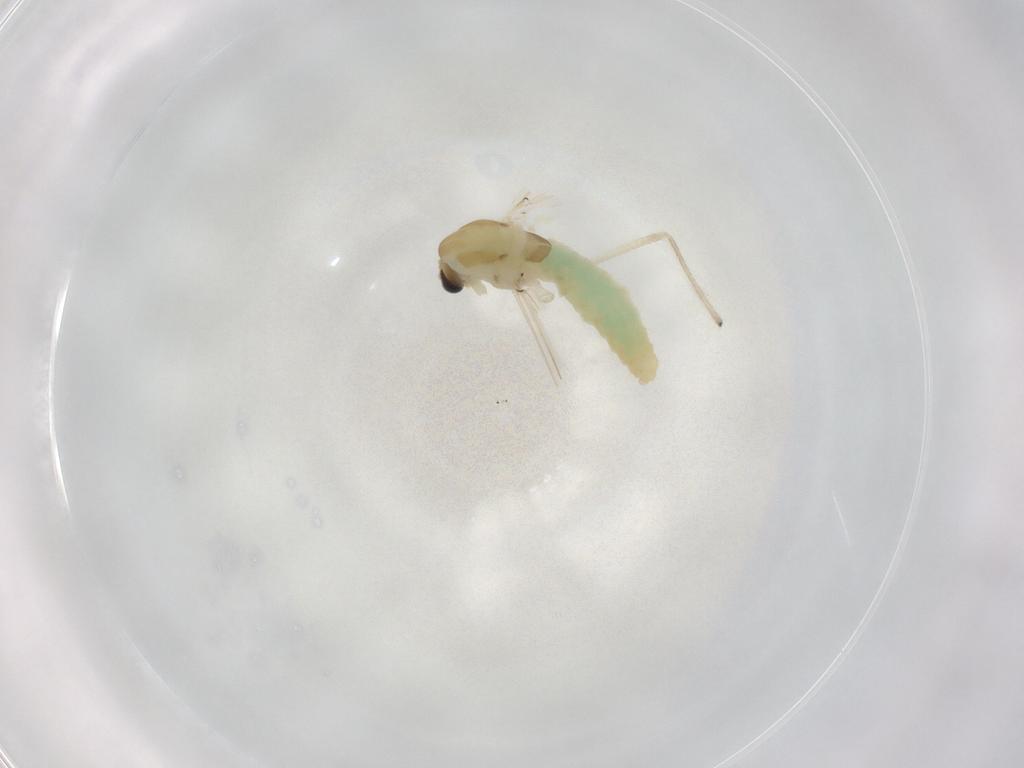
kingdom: Animalia
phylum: Arthropoda
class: Insecta
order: Diptera
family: Chironomidae
